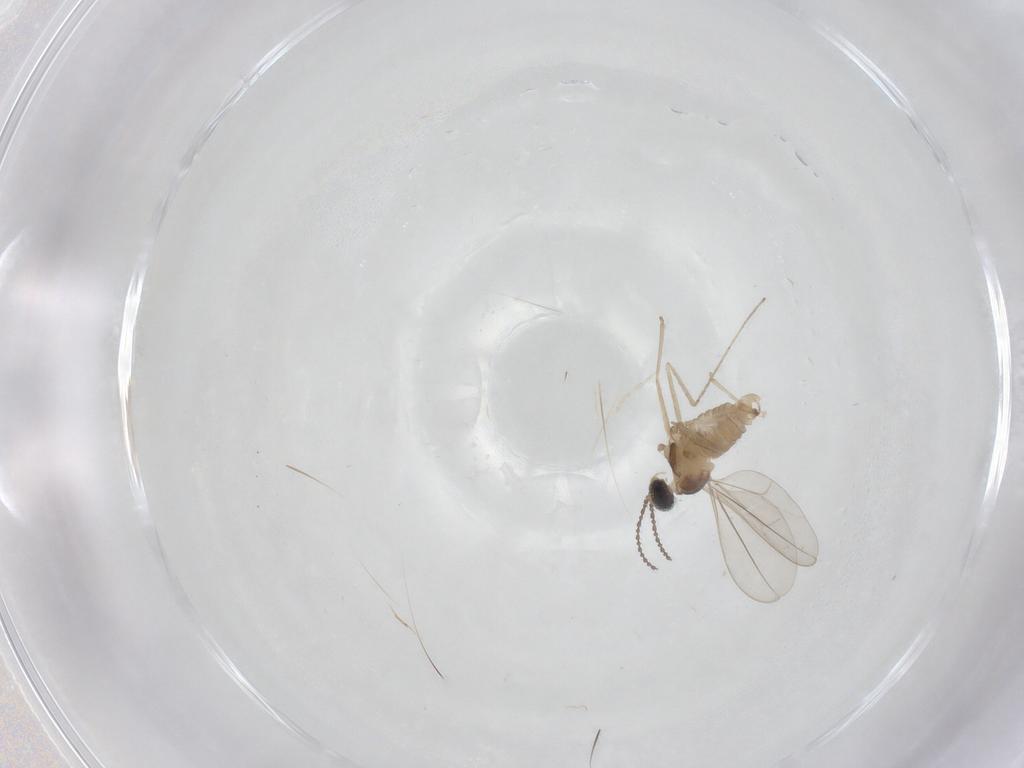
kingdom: Animalia
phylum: Arthropoda
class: Insecta
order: Diptera
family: Cecidomyiidae
